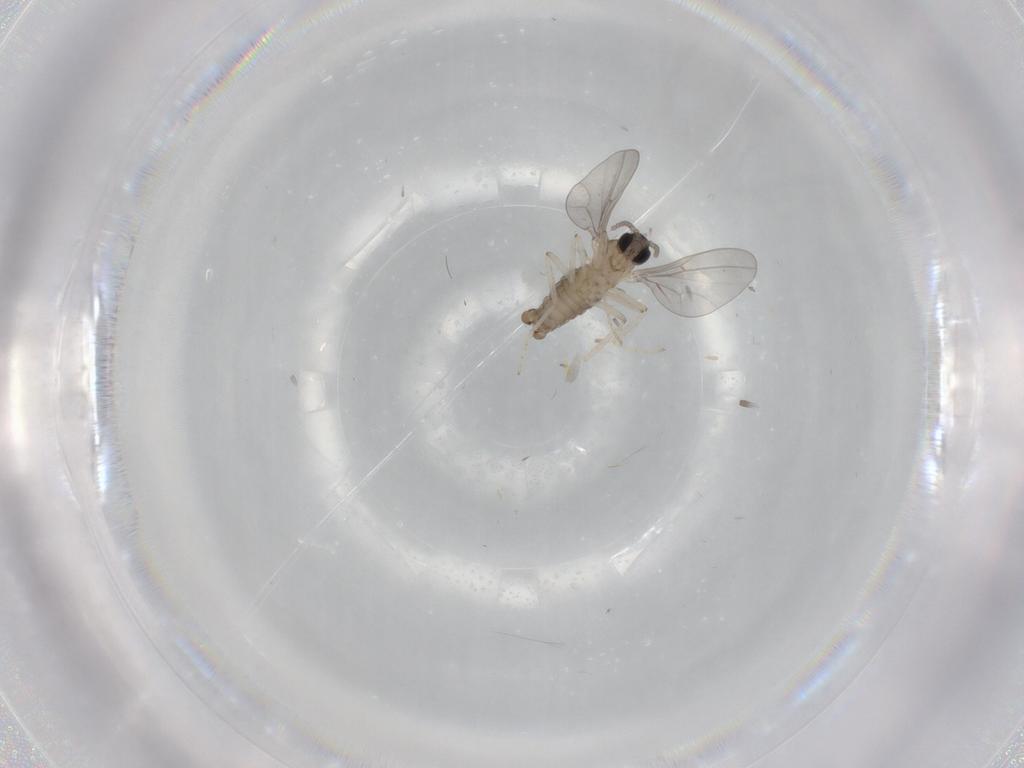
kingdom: Animalia
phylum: Arthropoda
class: Insecta
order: Diptera
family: Cecidomyiidae
